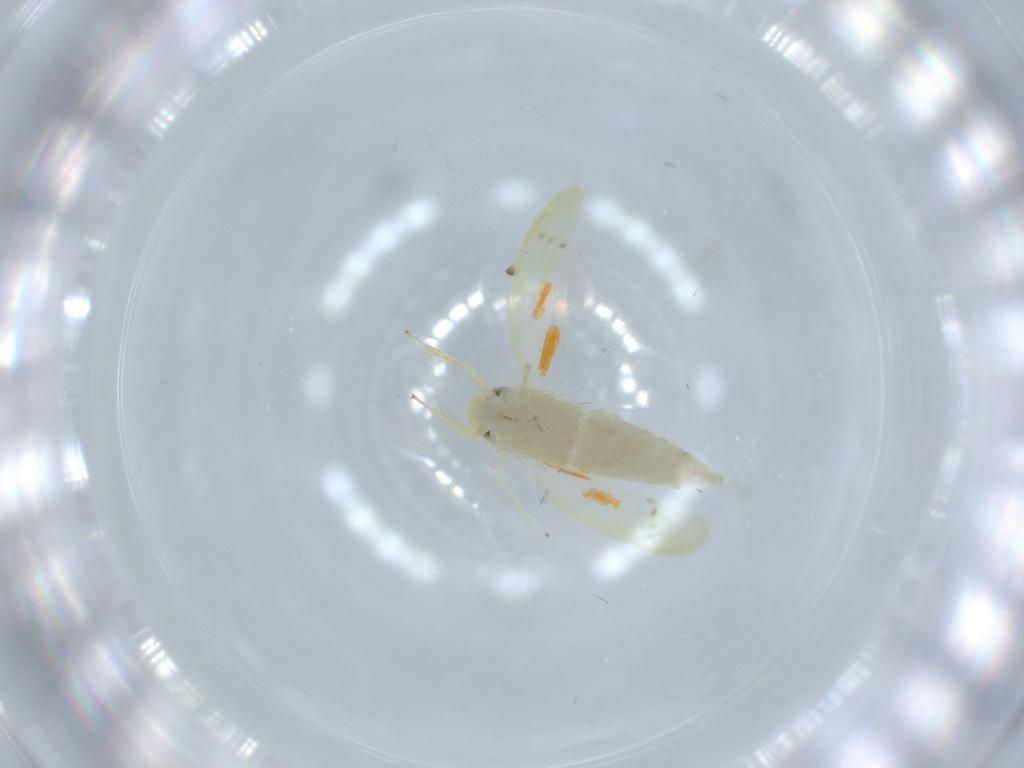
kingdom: Animalia
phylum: Arthropoda
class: Insecta
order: Hemiptera
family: Cicadellidae
